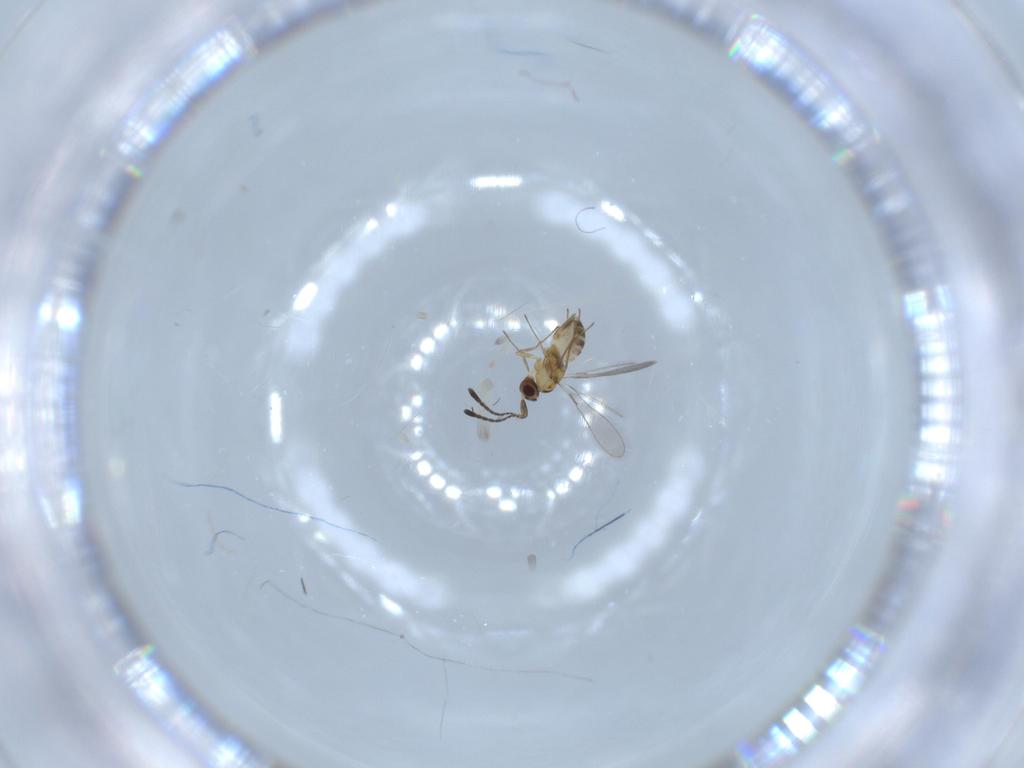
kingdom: Animalia
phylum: Arthropoda
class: Insecta
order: Hymenoptera
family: Mymaridae
